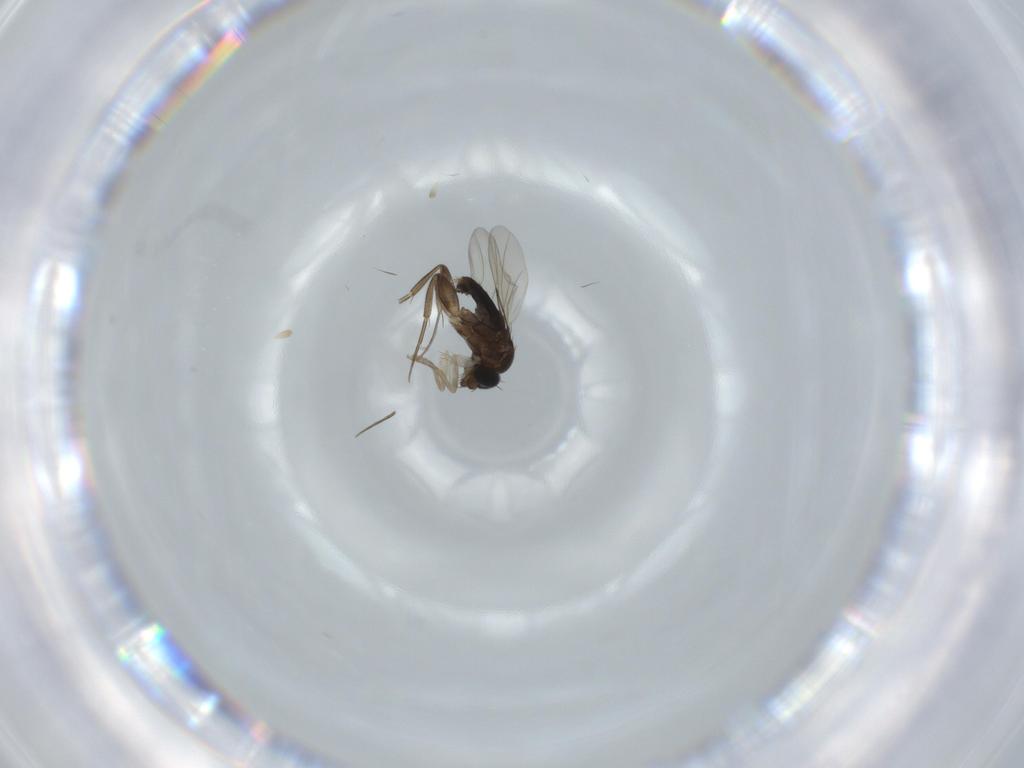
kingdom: Animalia
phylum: Arthropoda
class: Insecta
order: Diptera
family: Phoridae
